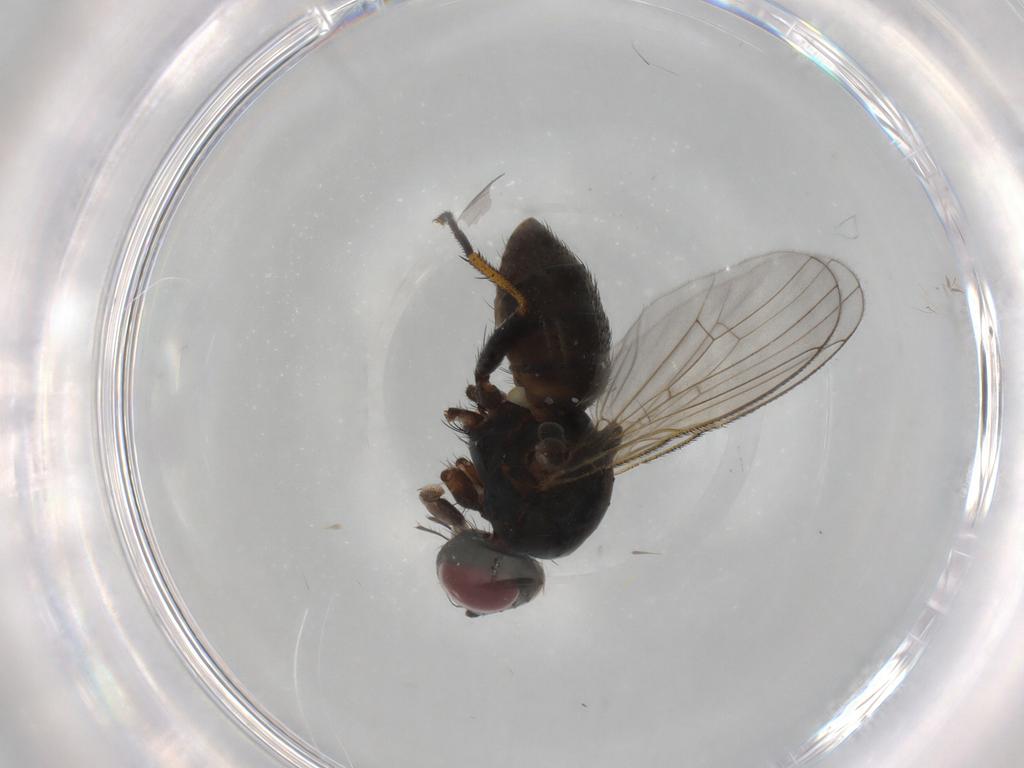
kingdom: Animalia
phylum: Arthropoda
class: Insecta
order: Diptera
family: Muscidae
